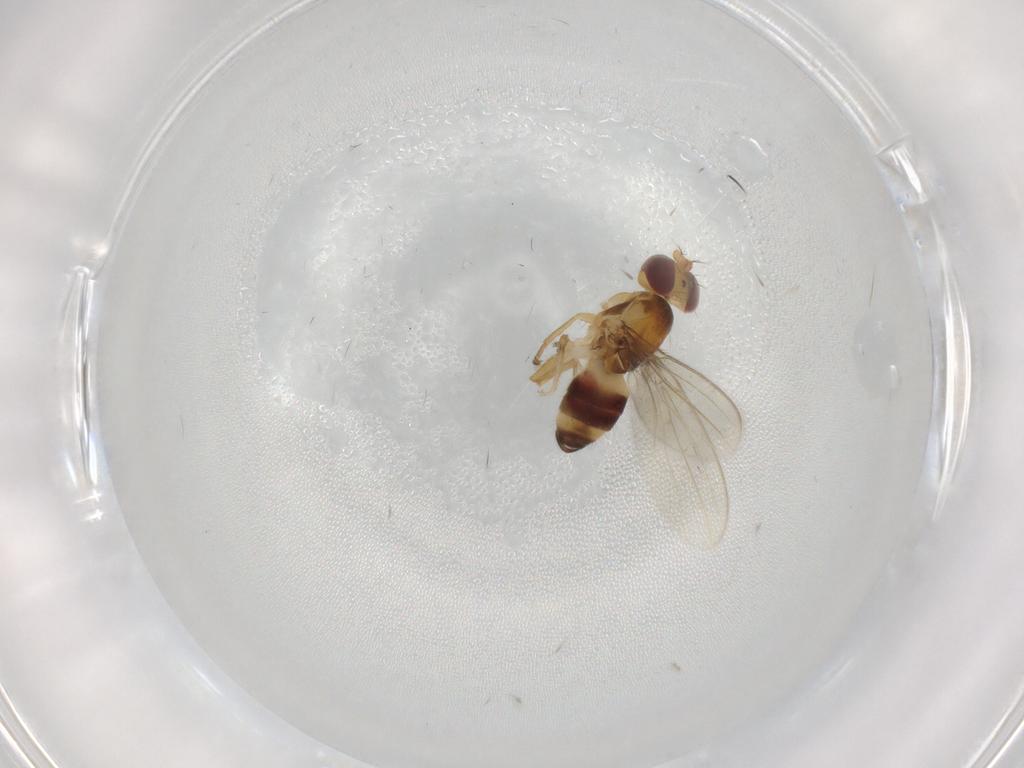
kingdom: Animalia
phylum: Arthropoda
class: Insecta
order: Diptera
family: Periscelididae
